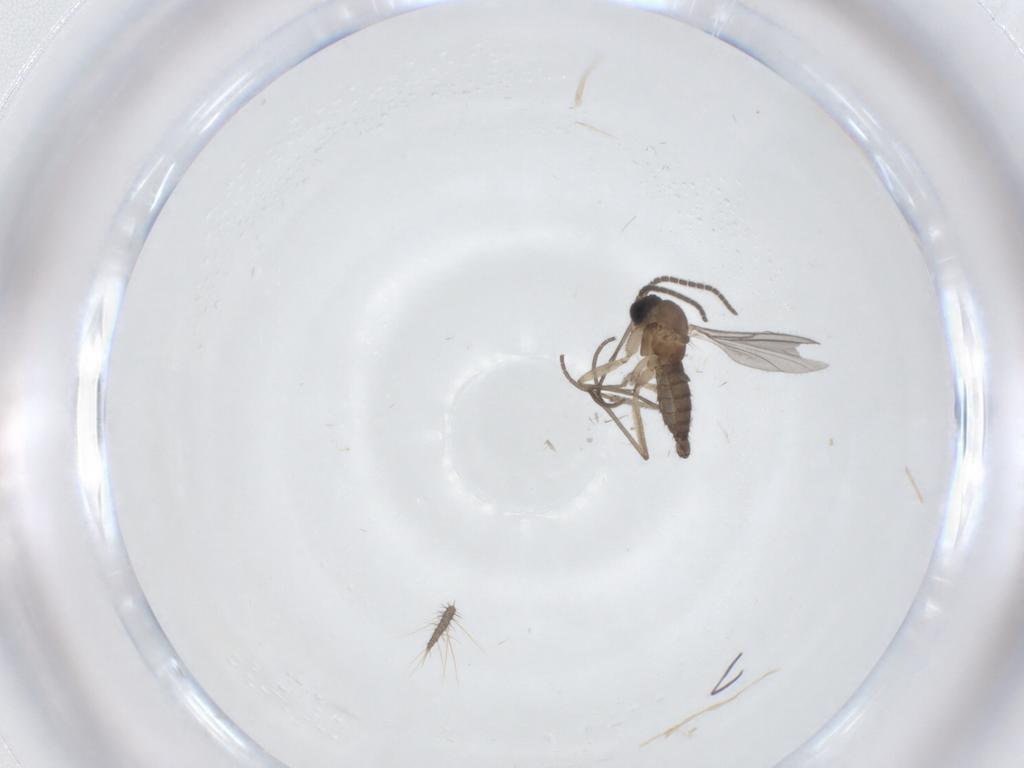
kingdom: Animalia
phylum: Arthropoda
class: Insecta
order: Diptera
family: Sciaridae
